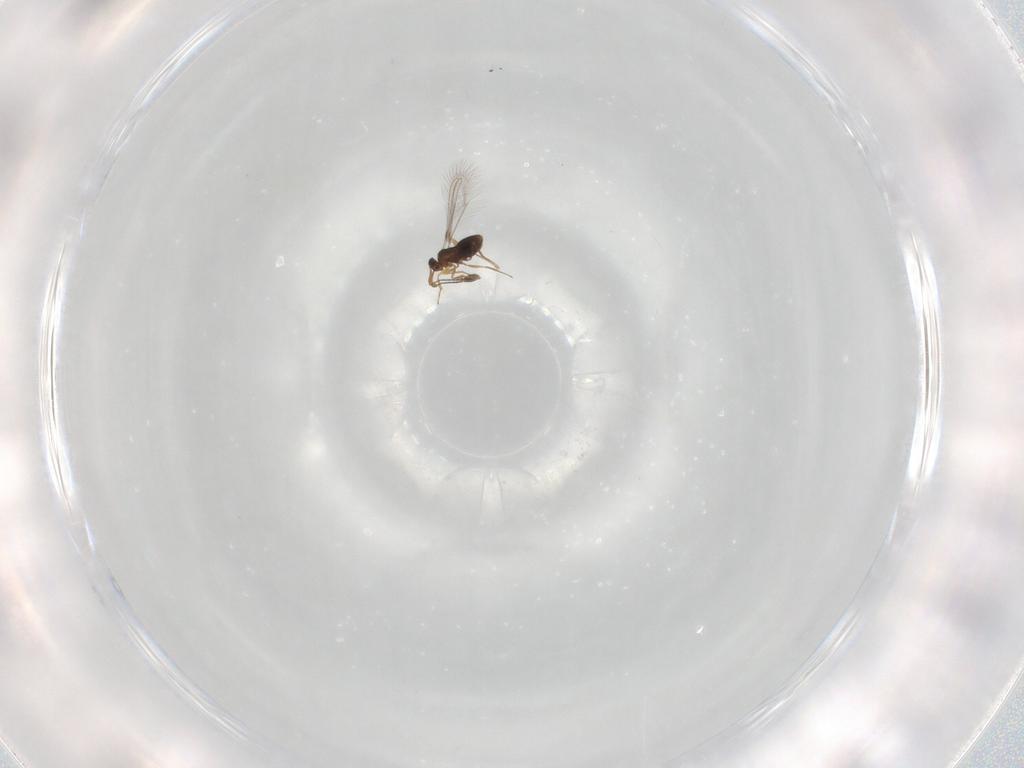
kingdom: Animalia
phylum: Arthropoda
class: Insecta
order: Hymenoptera
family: Mymaridae
